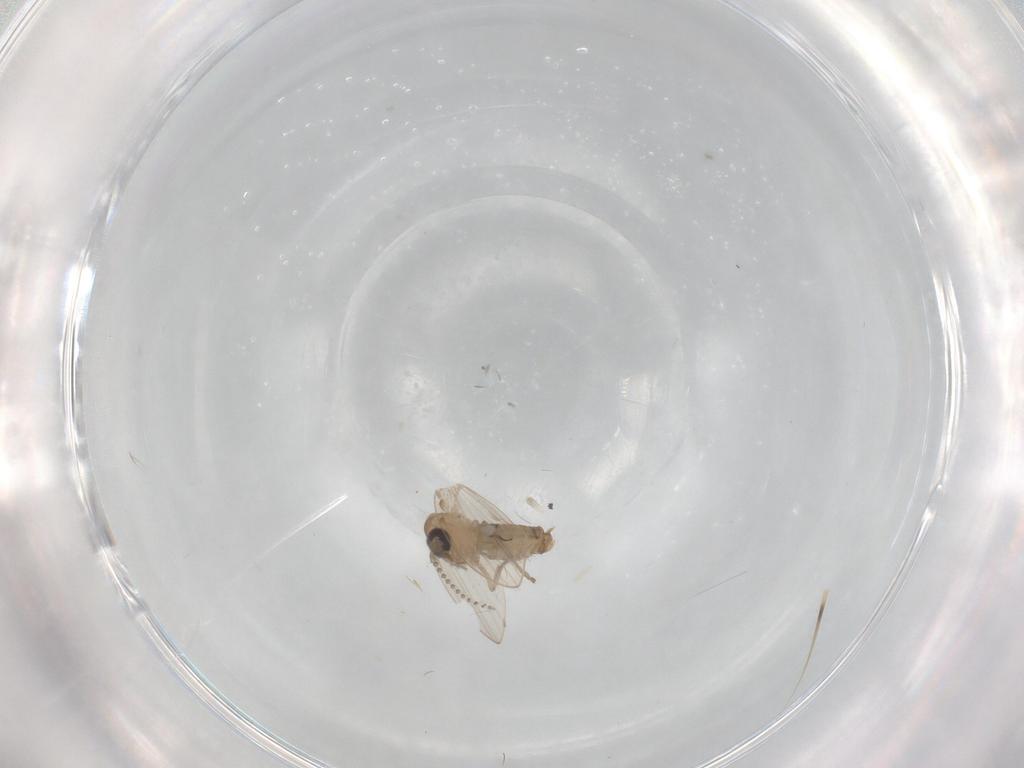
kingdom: Animalia
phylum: Arthropoda
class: Insecta
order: Diptera
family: Psychodidae
